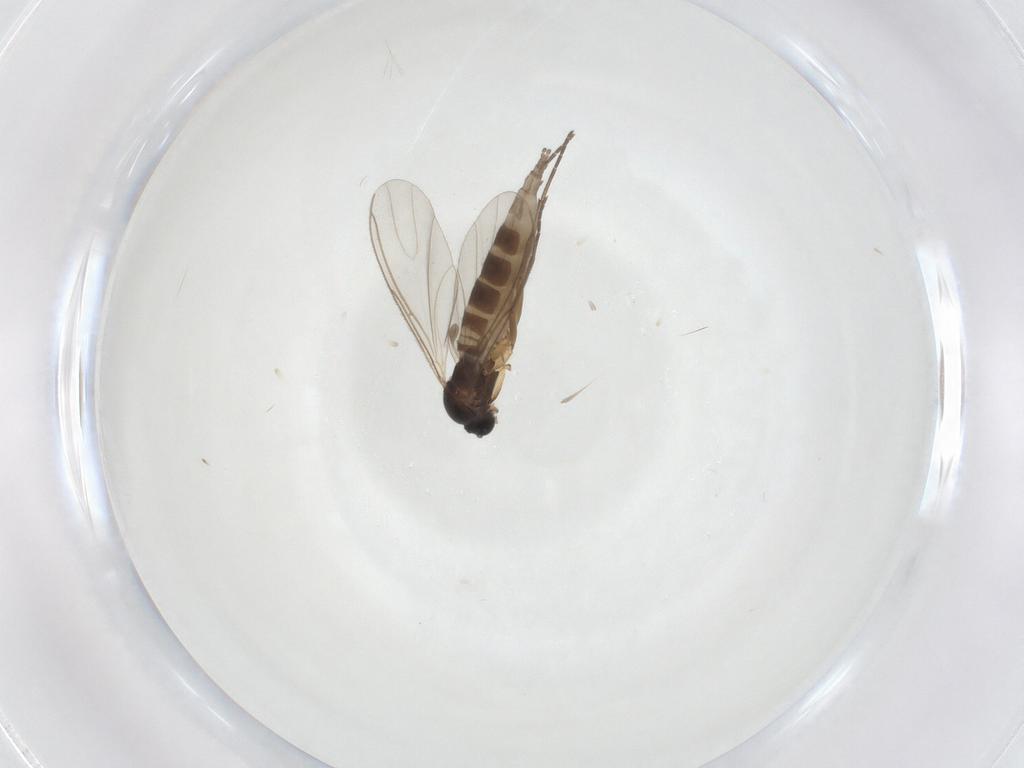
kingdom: Animalia
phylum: Arthropoda
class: Insecta
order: Diptera
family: Sciaridae
